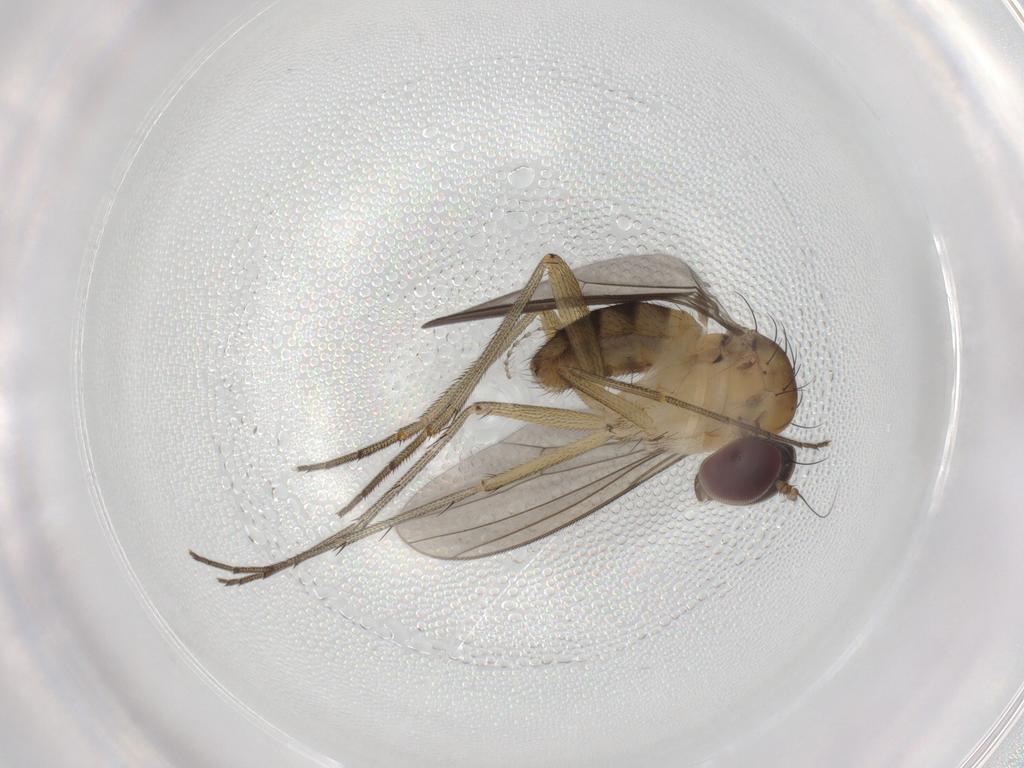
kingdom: Animalia
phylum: Arthropoda
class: Insecta
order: Diptera
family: Dolichopodidae
